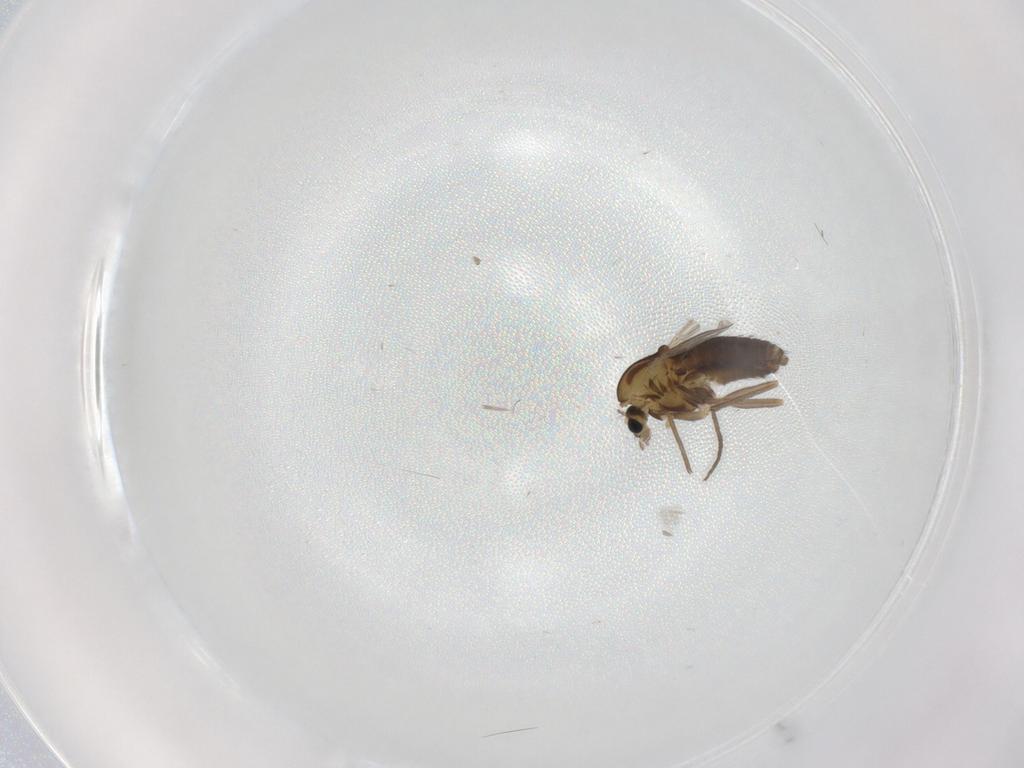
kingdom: Animalia
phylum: Arthropoda
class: Insecta
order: Diptera
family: Chironomidae
